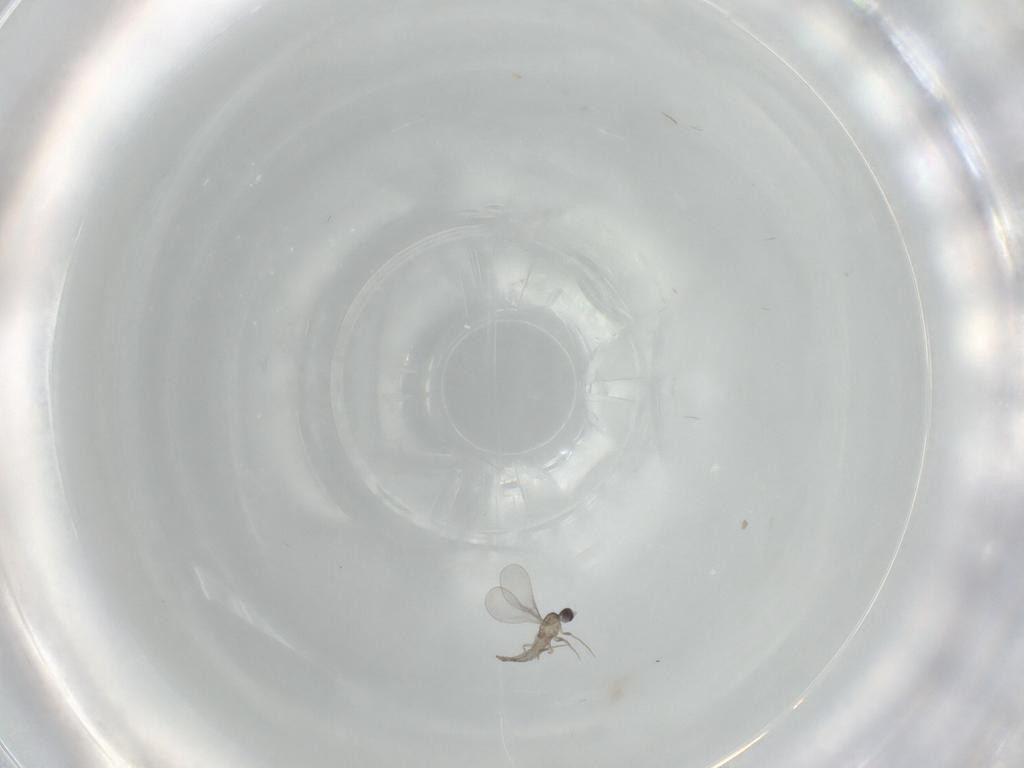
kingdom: Animalia
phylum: Arthropoda
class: Insecta
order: Diptera
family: Cecidomyiidae
